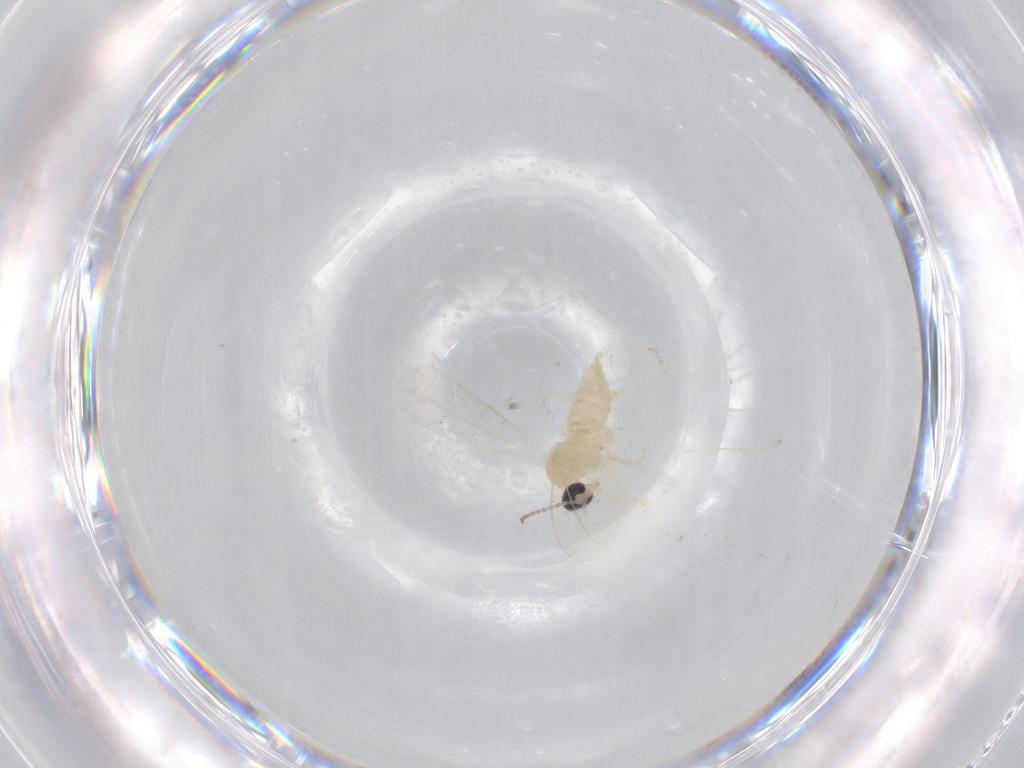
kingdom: Animalia
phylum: Arthropoda
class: Insecta
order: Diptera
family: Cecidomyiidae
